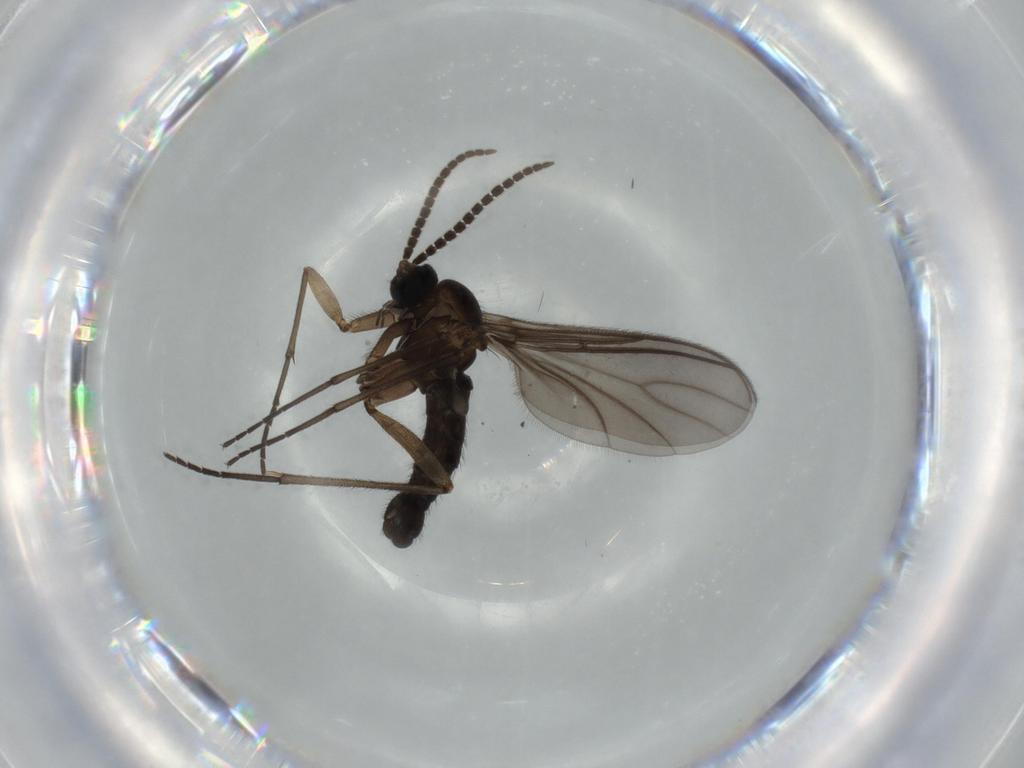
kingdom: Animalia
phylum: Arthropoda
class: Insecta
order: Diptera
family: Sciaridae
